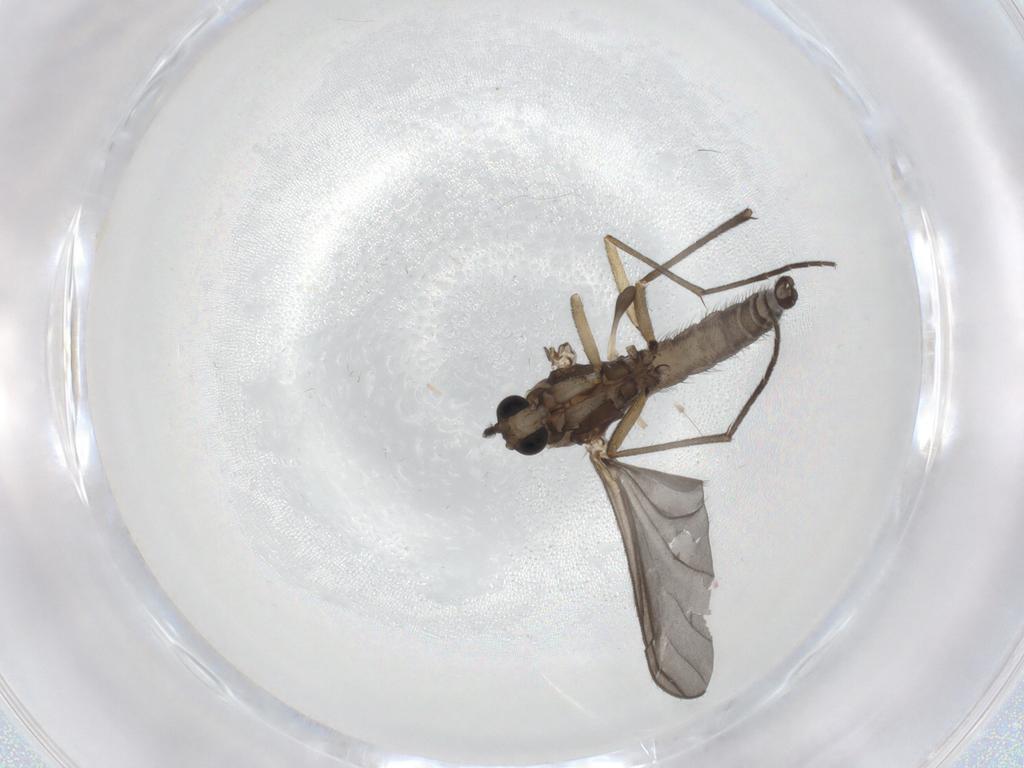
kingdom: Animalia
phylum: Arthropoda
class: Insecta
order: Diptera
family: Sciaridae
